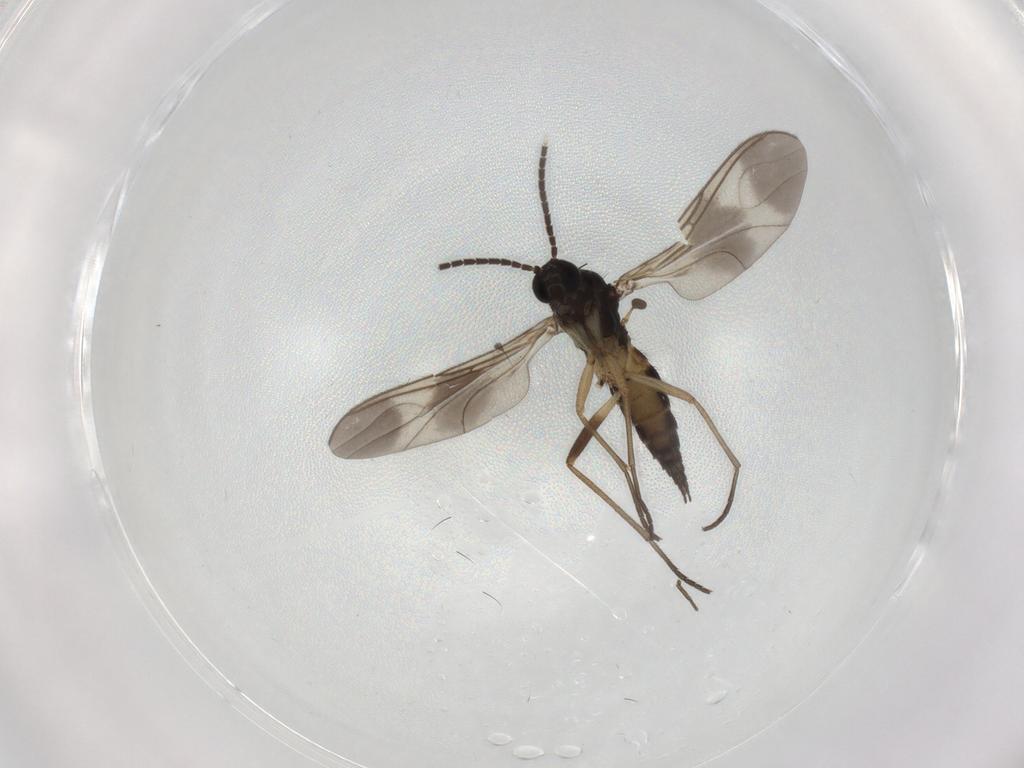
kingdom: Animalia
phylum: Arthropoda
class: Insecta
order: Diptera
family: Sciaridae
